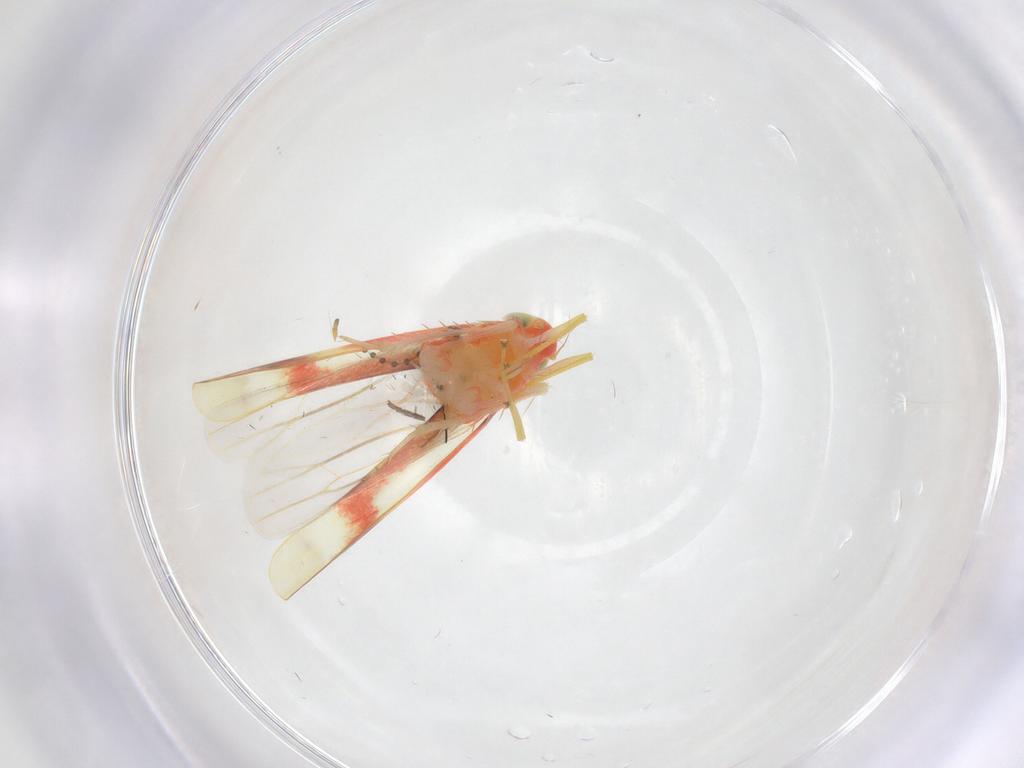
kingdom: Animalia
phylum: Arthropoda
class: Insecta
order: Hemiptera
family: Cicadellidae
